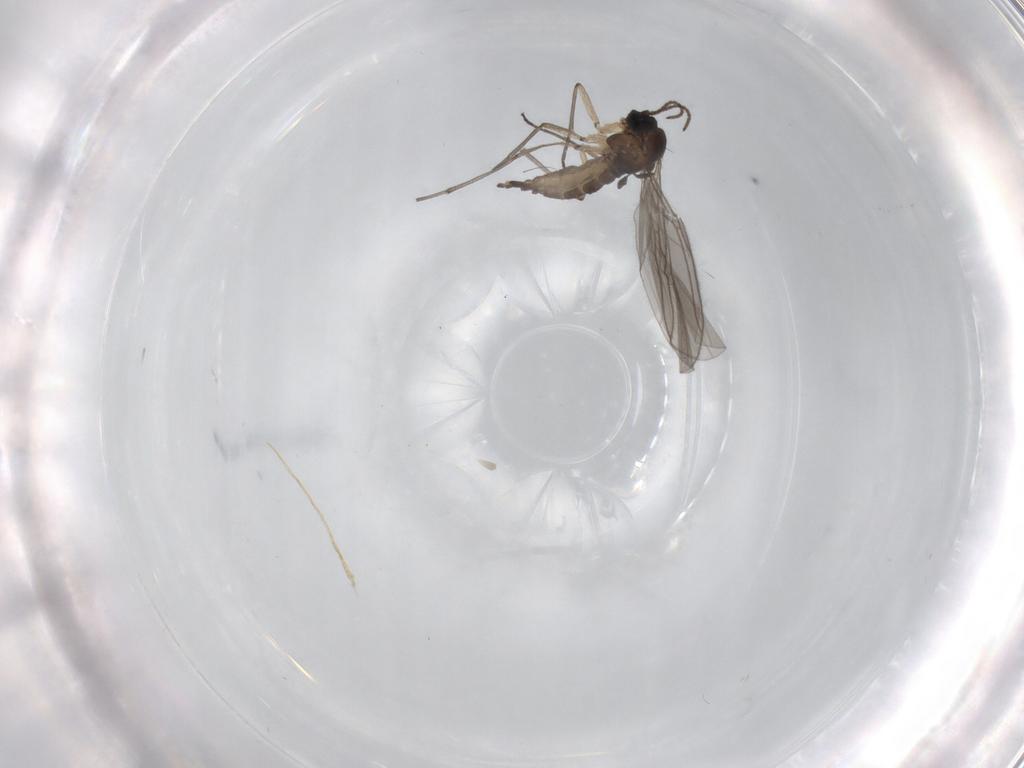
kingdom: Animalia
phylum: Arthropoda
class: Insecta
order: Diptera
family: Sciaridae
